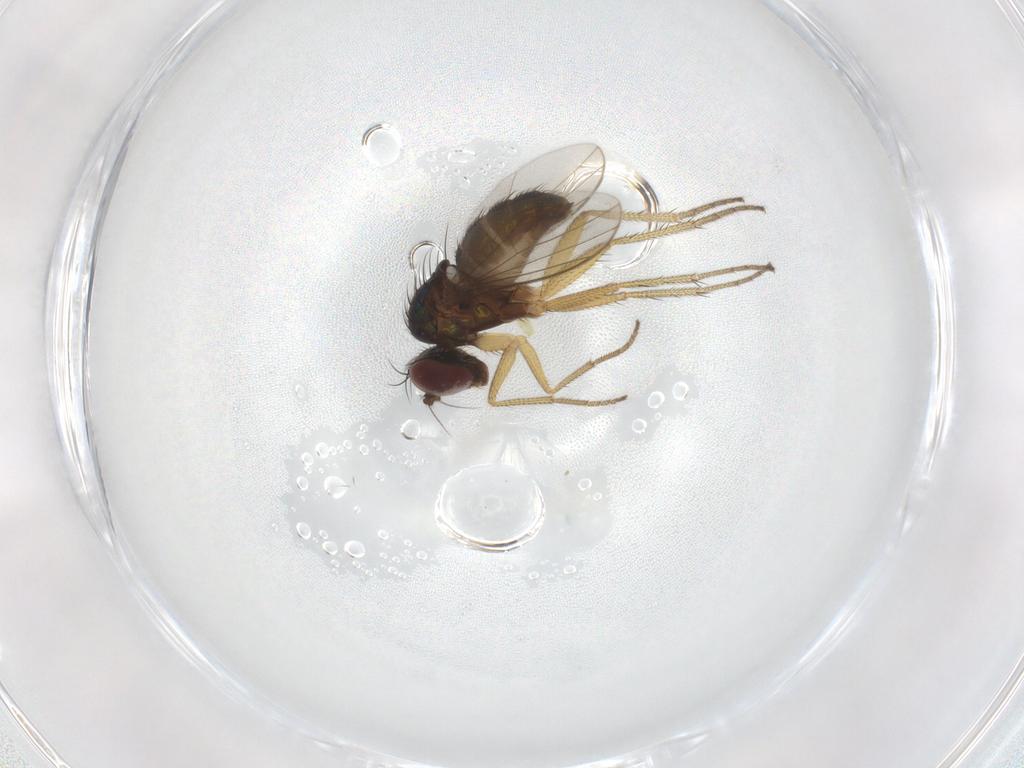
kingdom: Animalia
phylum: Arthropoda
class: Insecta
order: Diptera
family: Dolichopodidae
